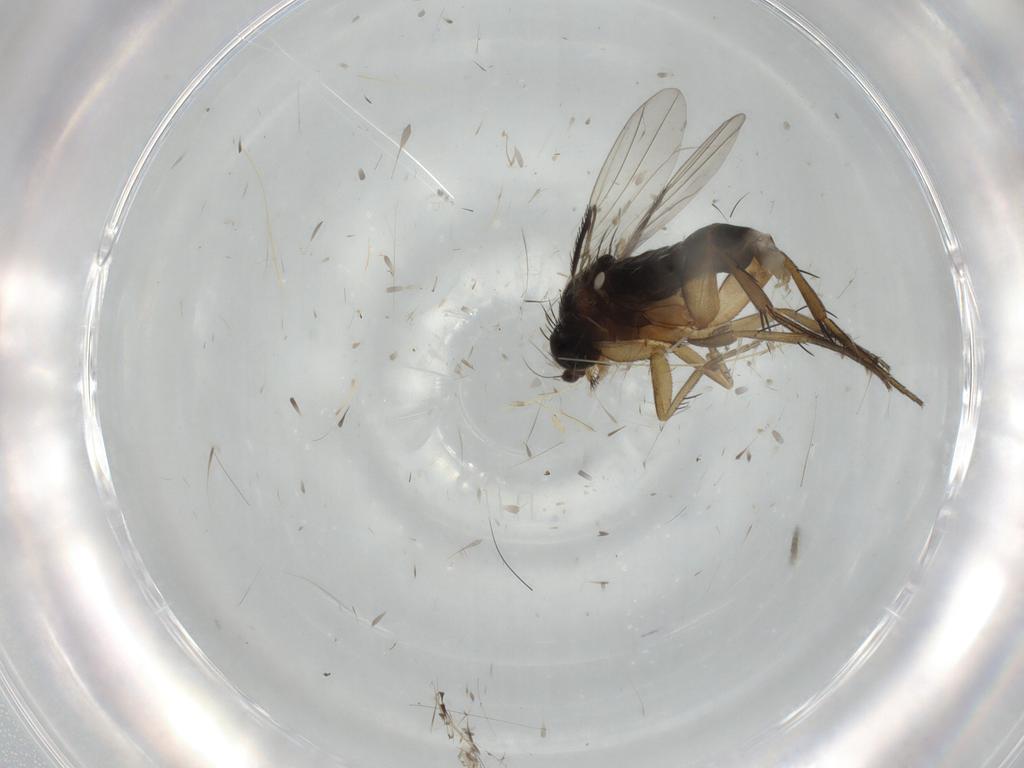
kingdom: Animalia
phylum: Arthropoda
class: Insecta
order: Diptera
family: Phoridae
